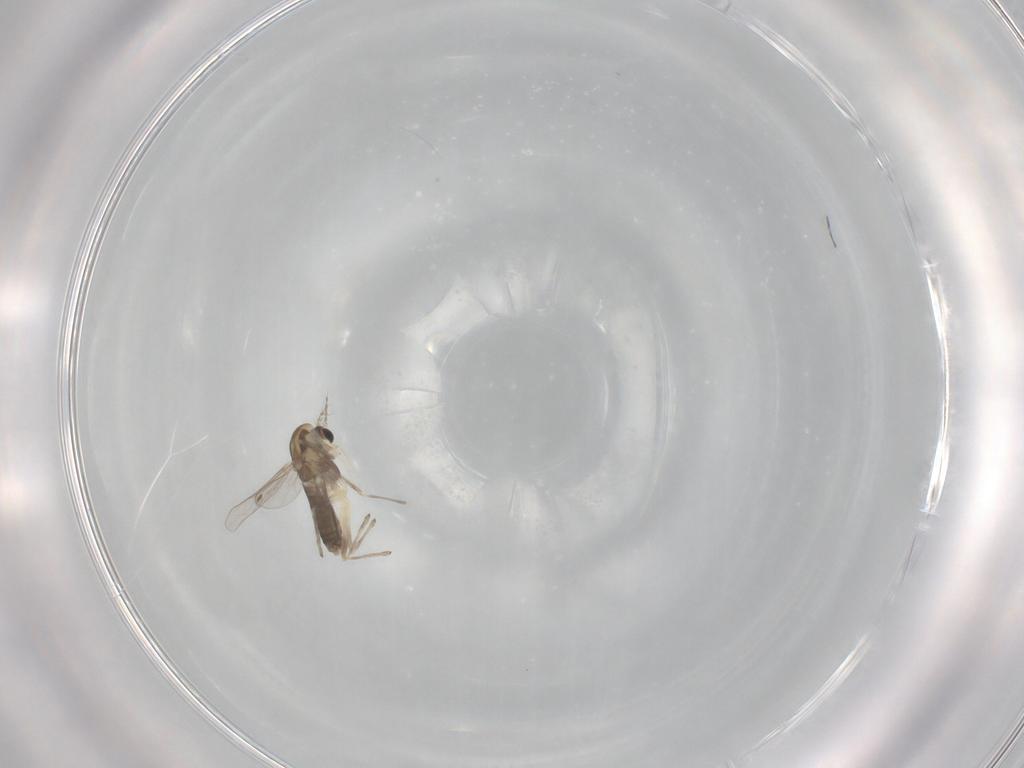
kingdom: Animalia
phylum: Arthropoda
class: Insecta
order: Diptera
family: Chironomidae
